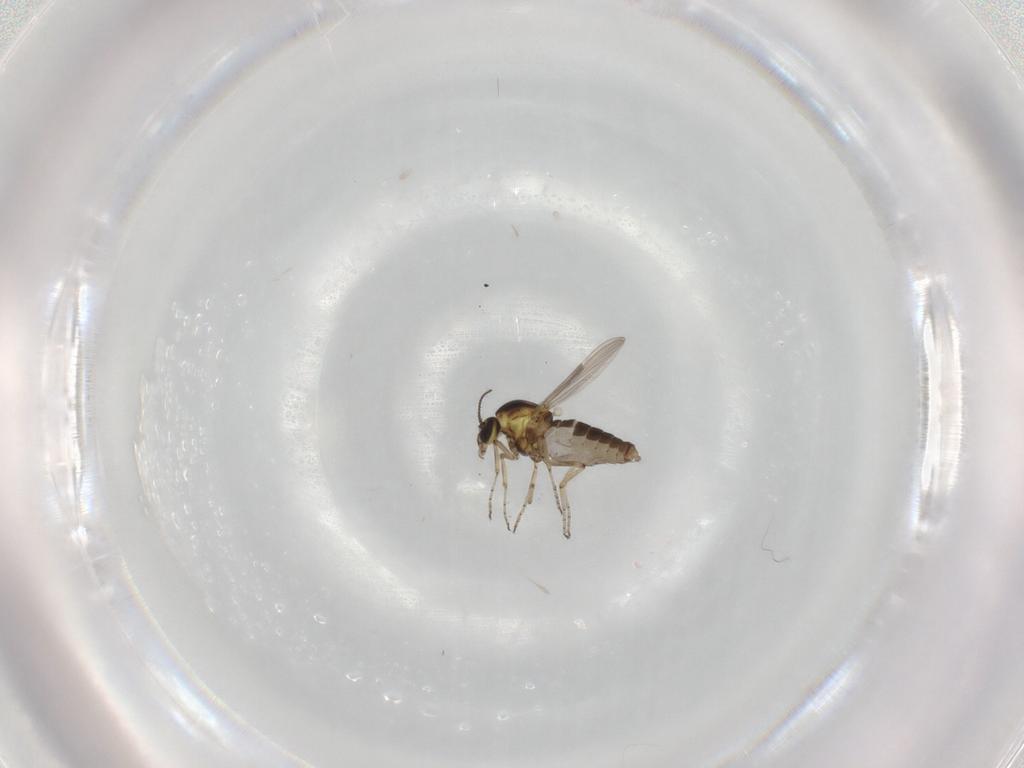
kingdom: Animalia
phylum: Arthropoda
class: Insecta
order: Diptera
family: Ceratopogonidae
